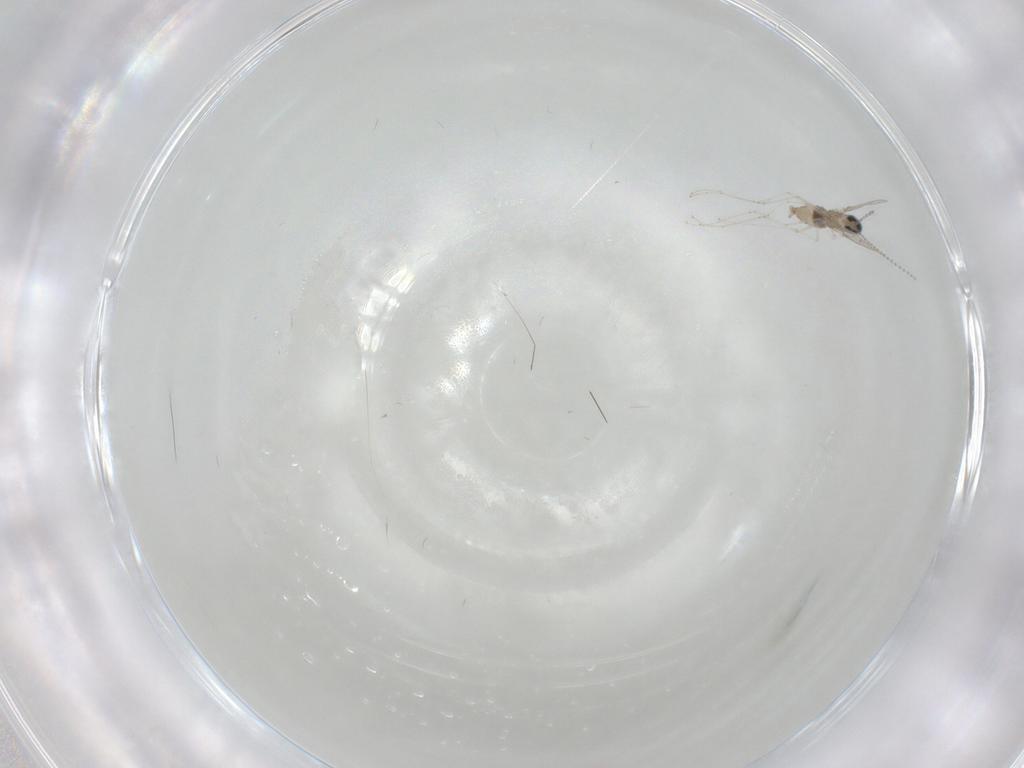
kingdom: Animalia
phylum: Arthropoda
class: Insecta
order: Diptera
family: Cecidomyiidae
